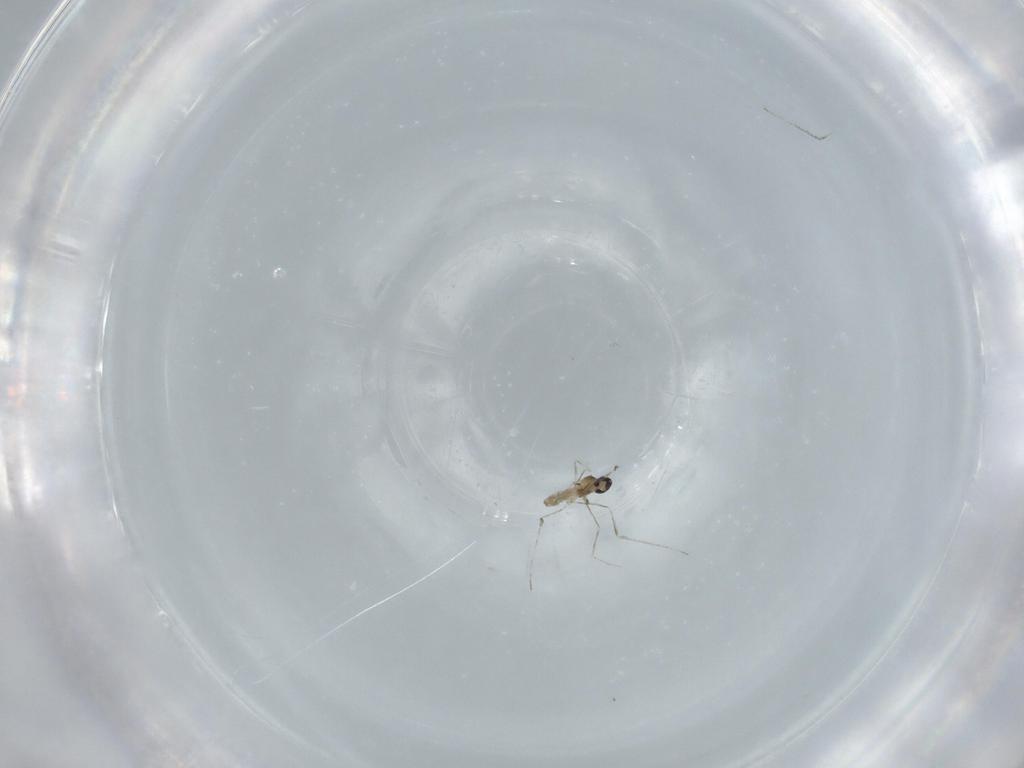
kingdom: Animalia
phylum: Arthropoda
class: Insecta
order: Diptera
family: Cecidomyiidae
